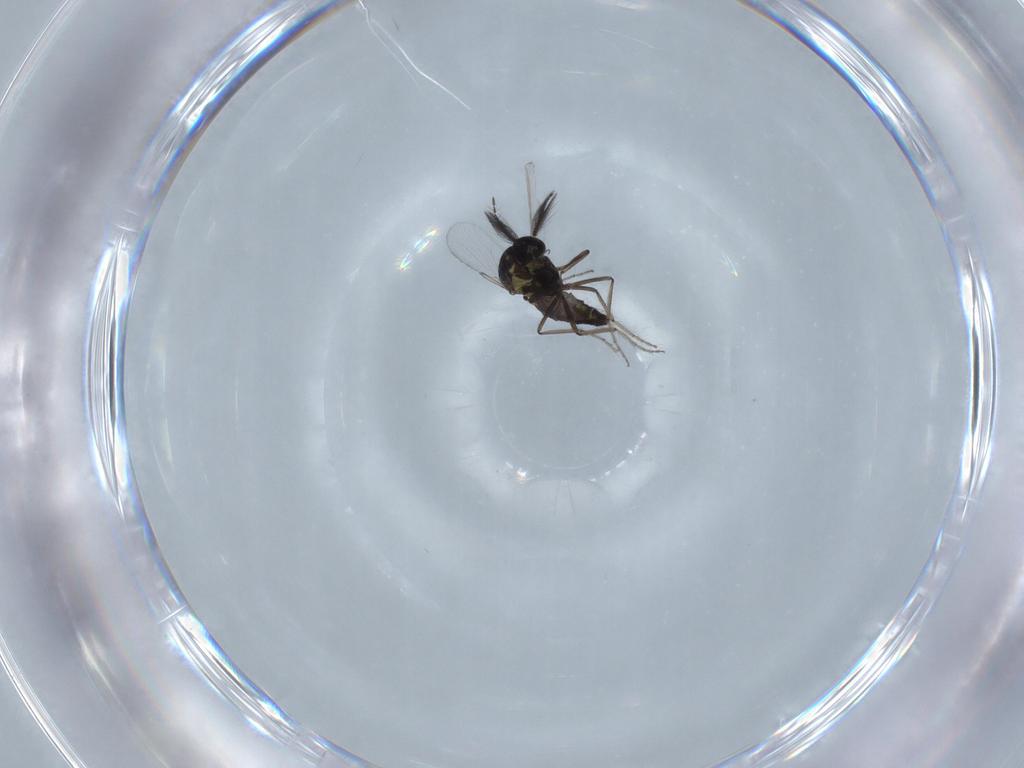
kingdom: Animalia
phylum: Arthropoda
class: Insecta
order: Diptera
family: Ceratopogonidae
